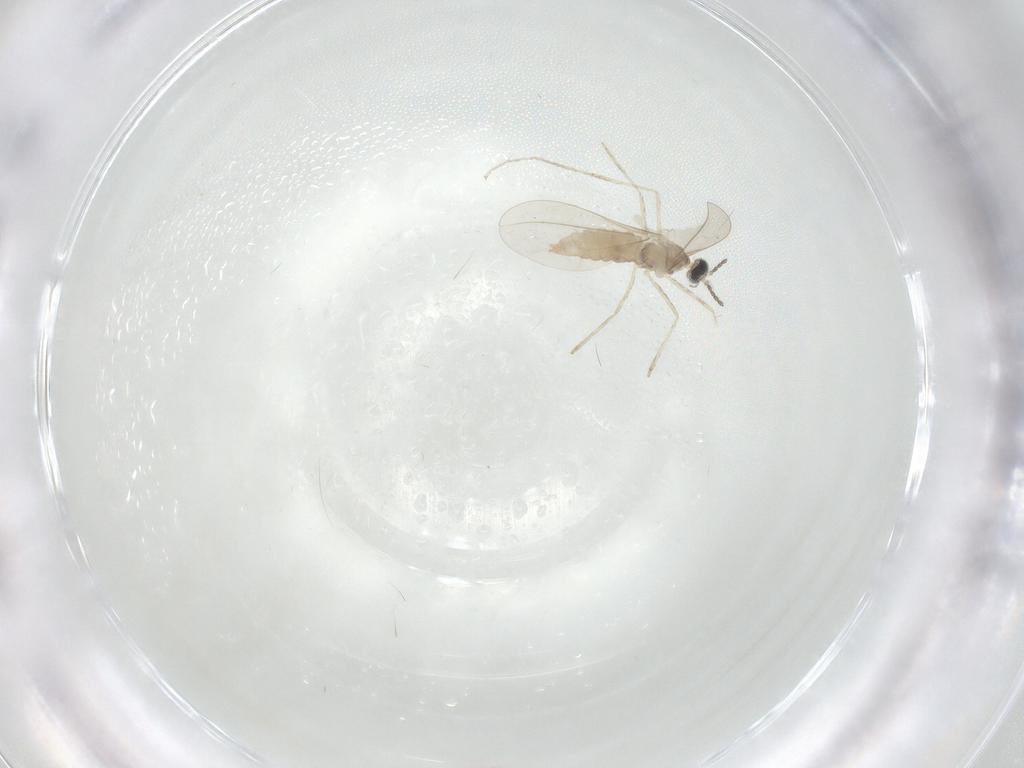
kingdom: Animalia
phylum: Arthropoda
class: Insecta
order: Diptera
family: Cecidomyiidae
